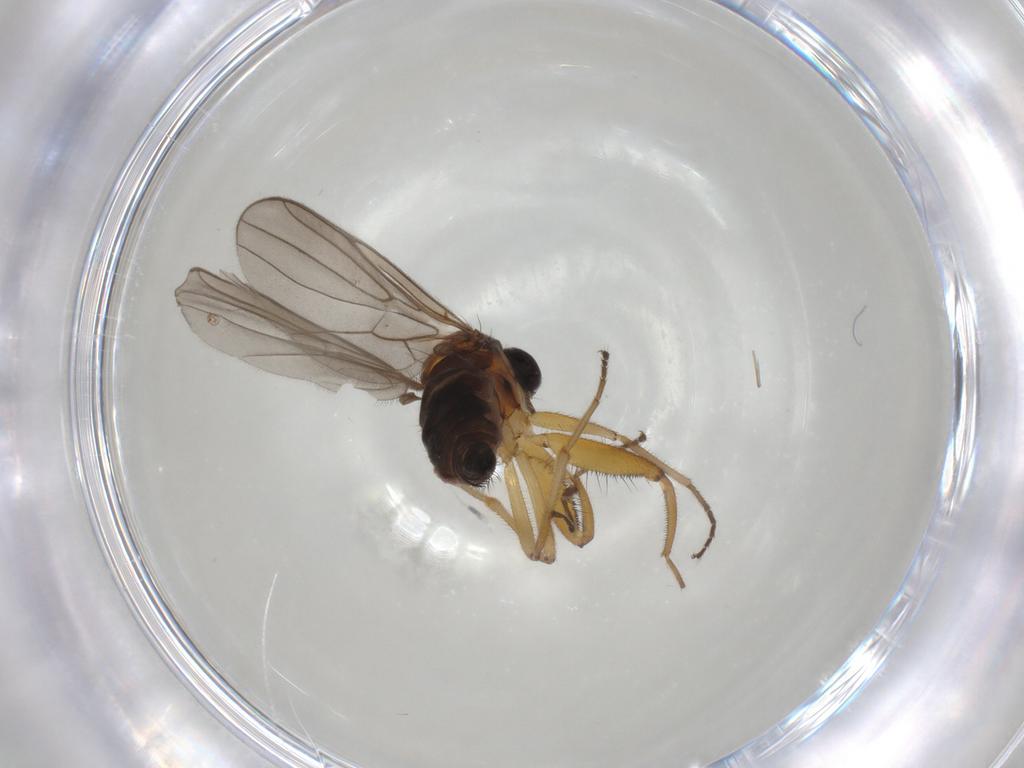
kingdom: Animalia
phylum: Arthropoda
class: Insecta
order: Diptera
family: Hybotidae
